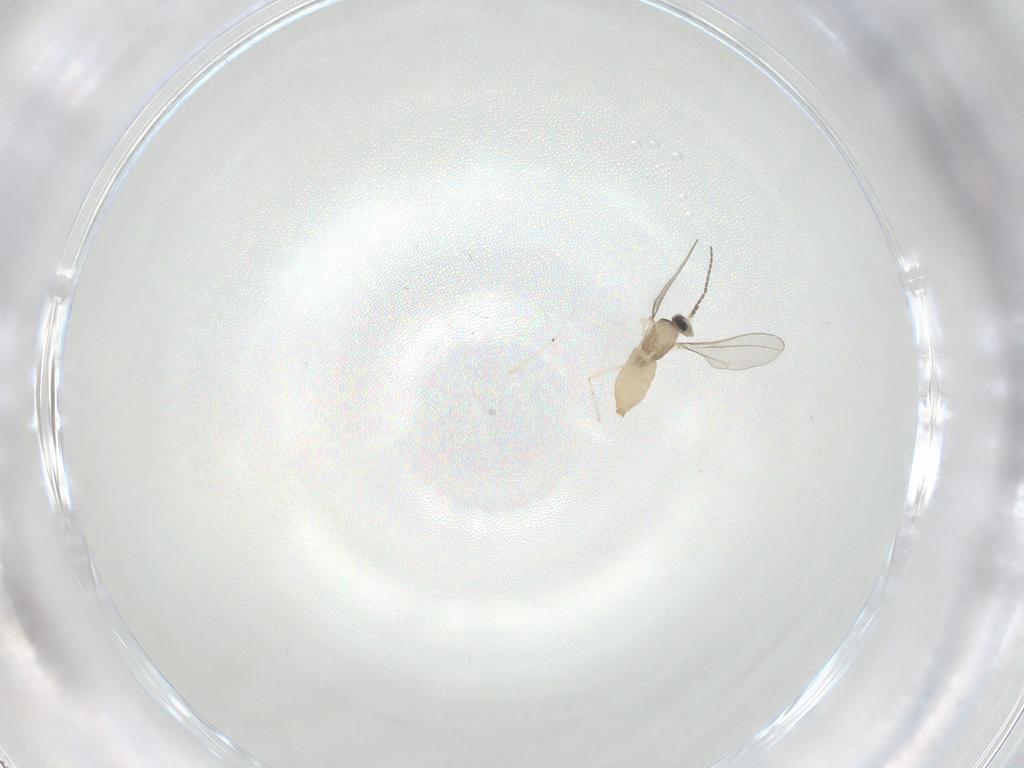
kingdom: Animalia
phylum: Arthropoda
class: Insecta
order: Diptera
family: Cecidomyiidae
